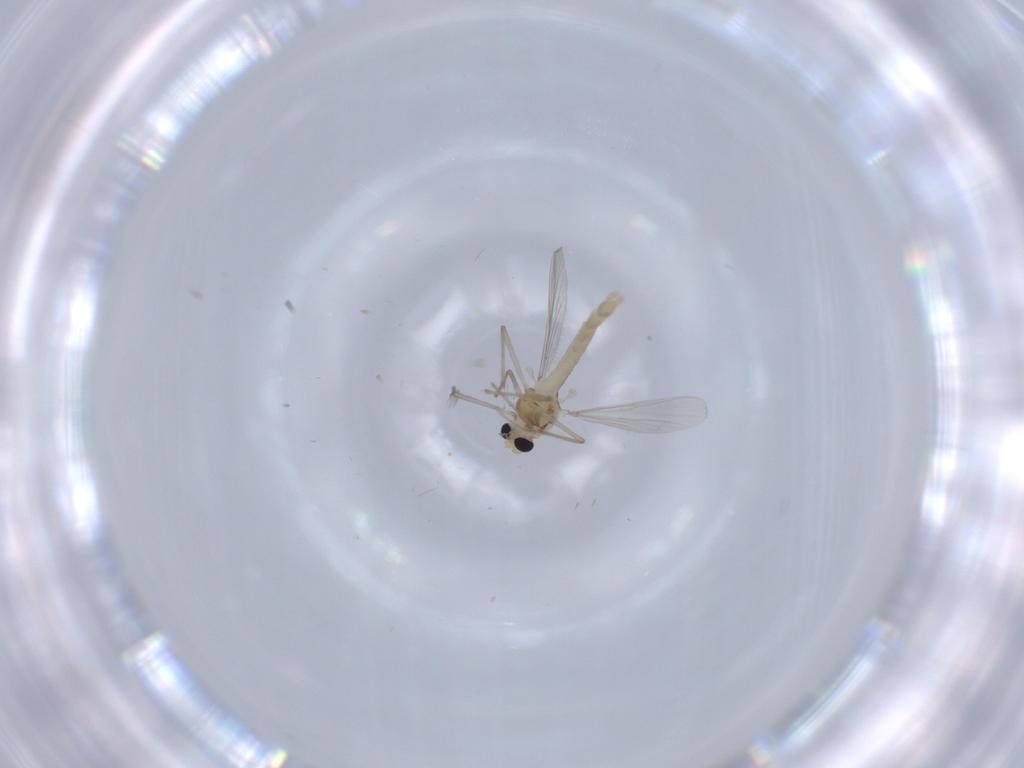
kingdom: Animalia
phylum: Arthropoda
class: Insecta
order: Diptera
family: Chironomidae
